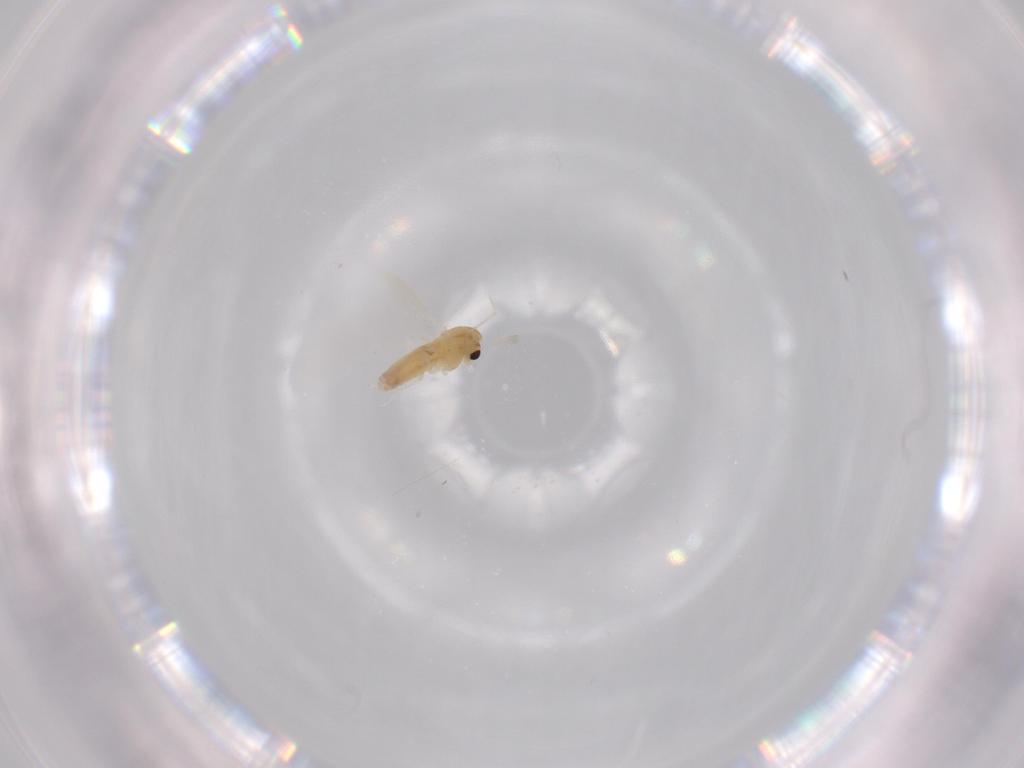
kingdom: Animalia
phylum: Arthropoda
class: Insecta
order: Diptera
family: Chironomidae
